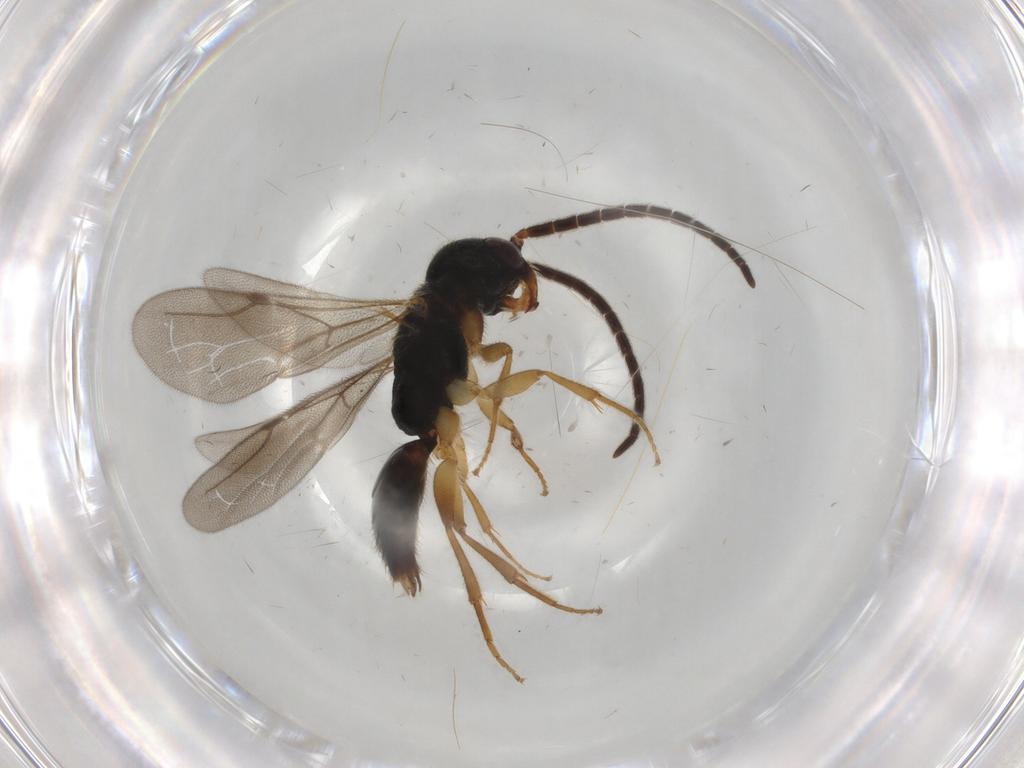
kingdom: Animalia
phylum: Arthropoda
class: Insecta
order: Hymenoptera
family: Bethylidae
